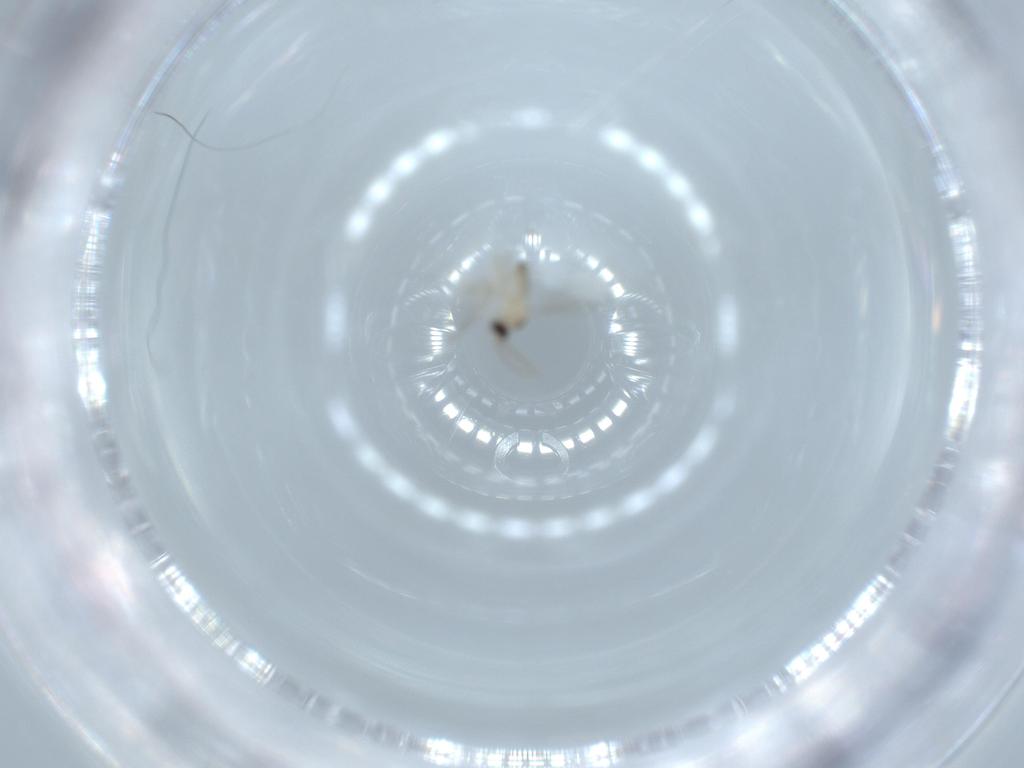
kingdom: Animalia
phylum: Arthropoda
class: Insecta
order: Diptera
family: Cecidomyiidae
